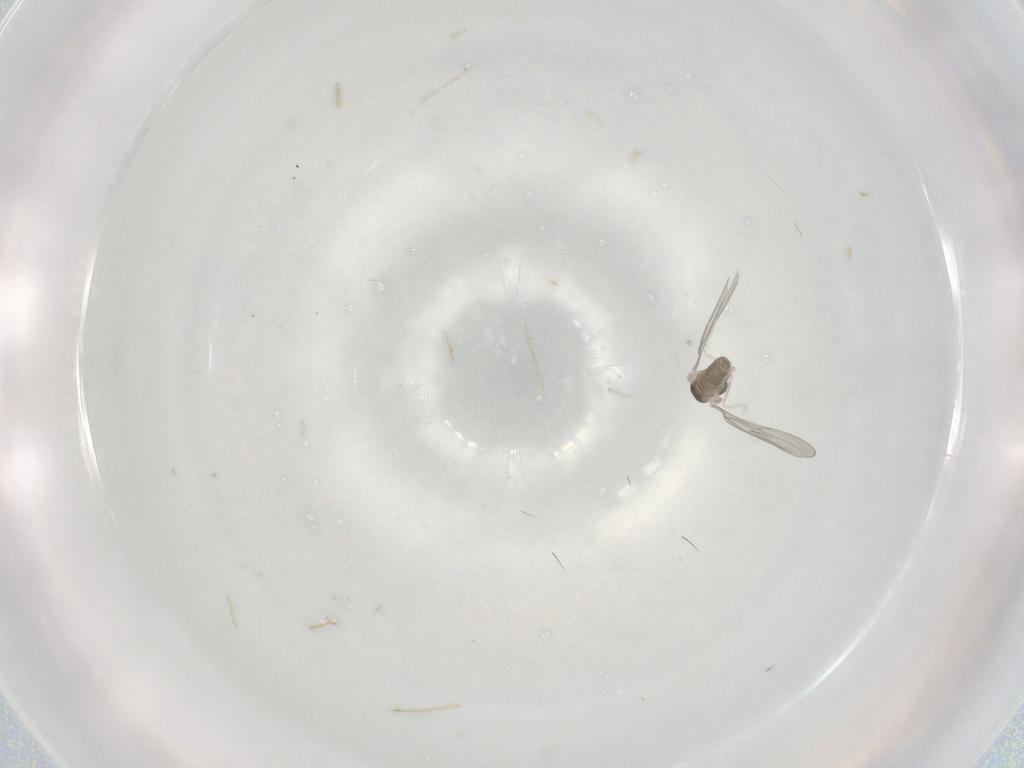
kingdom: Animalia
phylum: Arthropoda
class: Insecta
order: Diptera
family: Cecidomyiidae
